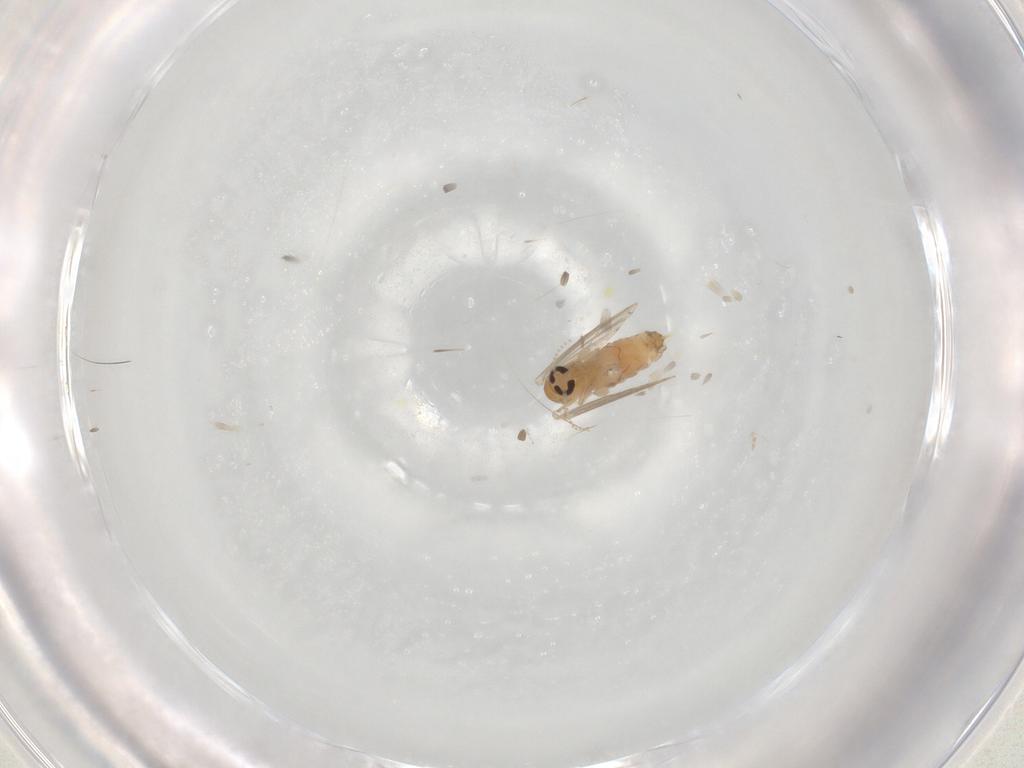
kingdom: Animalia
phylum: Arthropoda
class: Insecta
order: Diptera
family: Psychodidae
